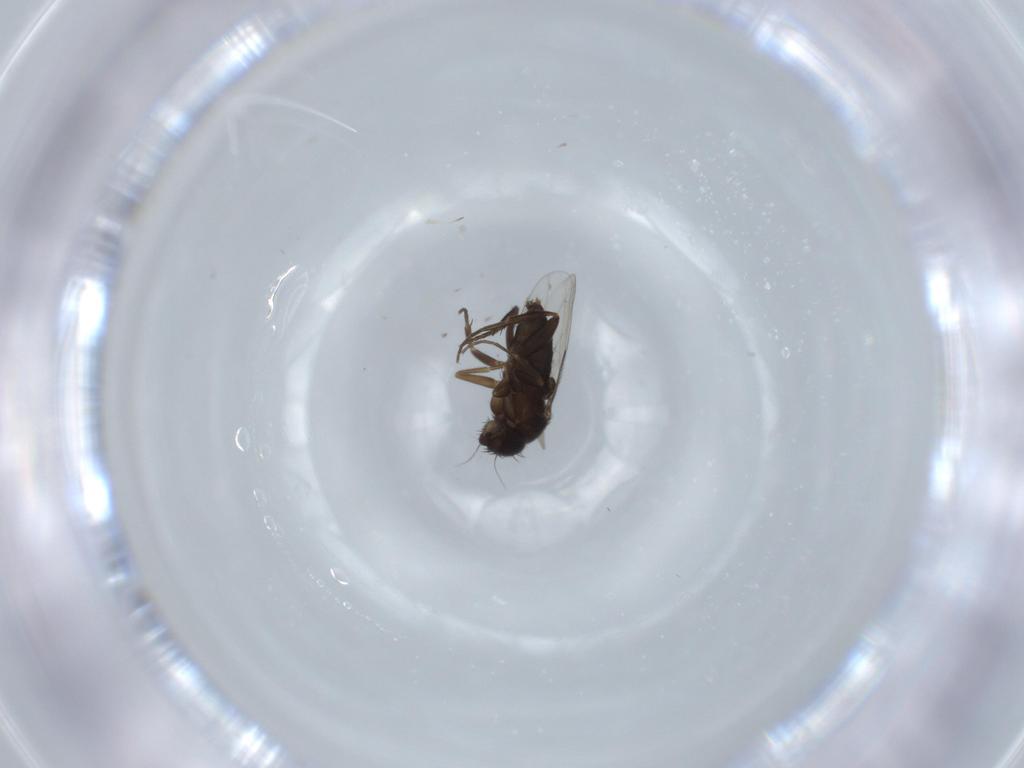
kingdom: Animalia
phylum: Arthropoda
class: Insecta
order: Diptera
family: Phoridae
